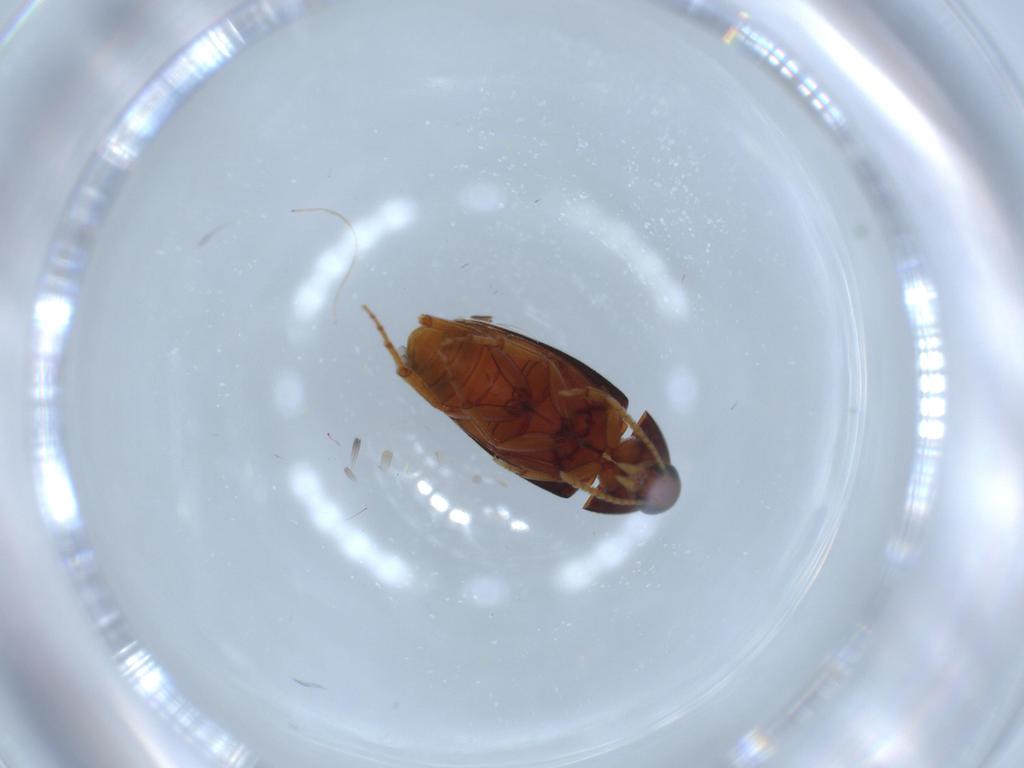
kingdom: Animalia
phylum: Arthropoda
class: Insecta
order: Coleoptera
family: Scraptiidae
